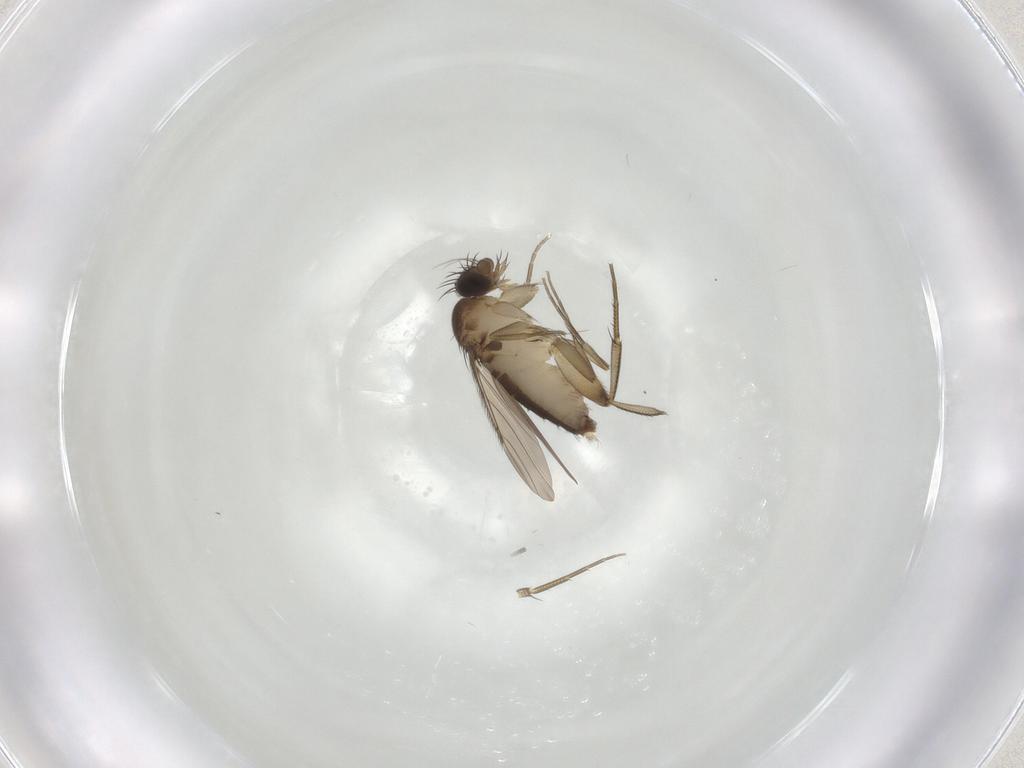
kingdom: Animalia
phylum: Arthropoda
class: Insecta
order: Diptera
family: Phoridae
